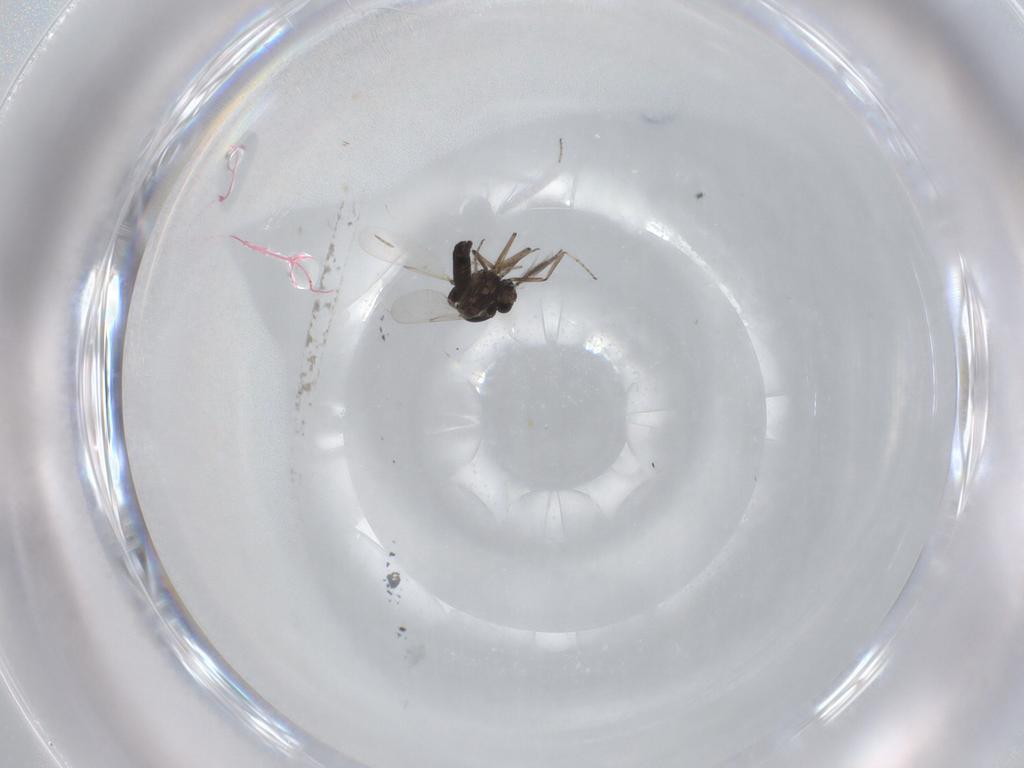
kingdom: Animalia
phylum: Arthropoda
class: Insecta
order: Diptera
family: Ceratopogonidae
